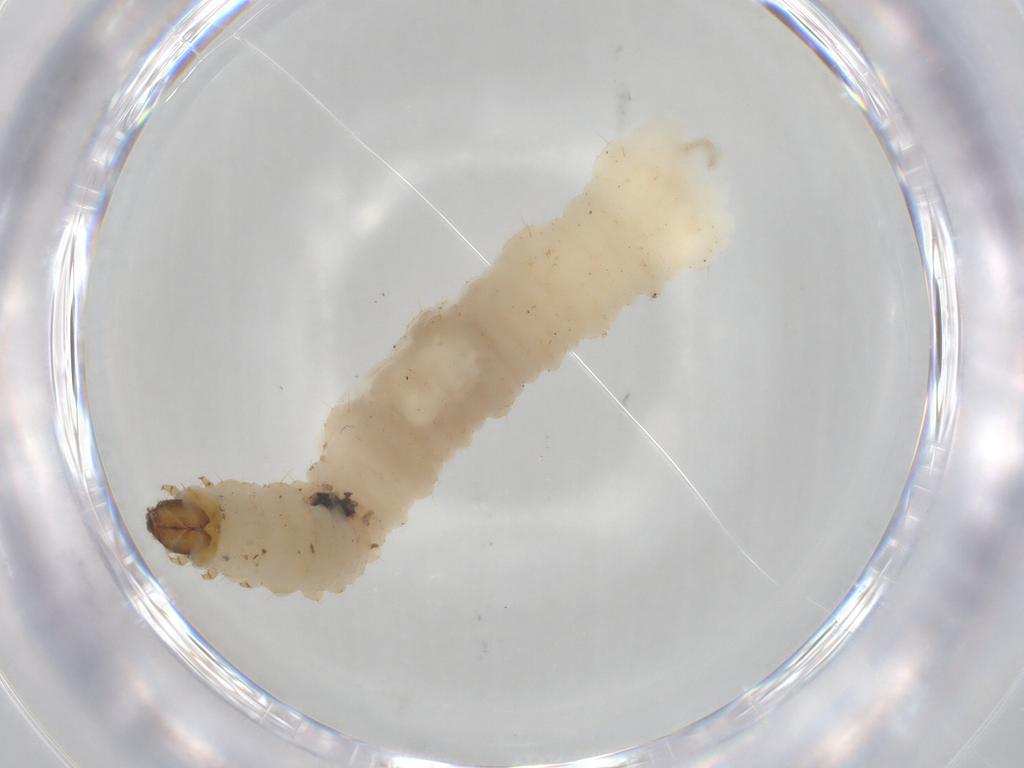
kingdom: Animalia
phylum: Arthropoda
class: Insecta
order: Coleoptera
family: Chrysomelidae
